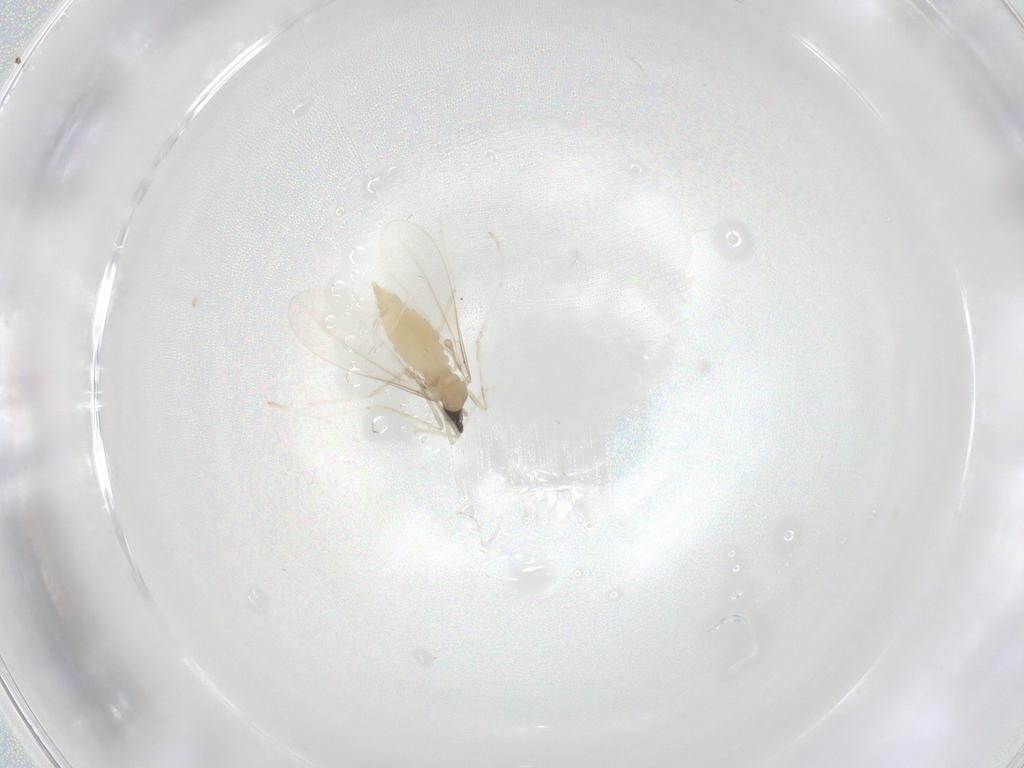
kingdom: Animalia
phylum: Arthropoda
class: Insecta
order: Diptera
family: Cecidomyiidae
